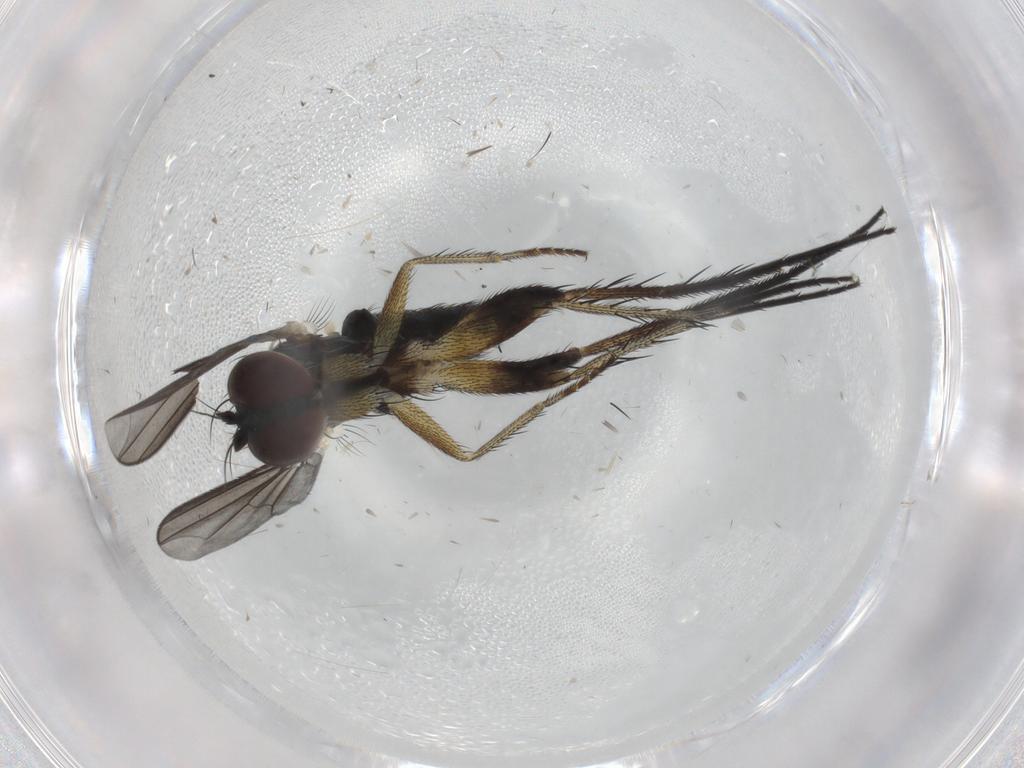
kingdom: Animalia
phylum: Arthropoda
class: Insecta
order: Diptera
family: Dolichopodidae
